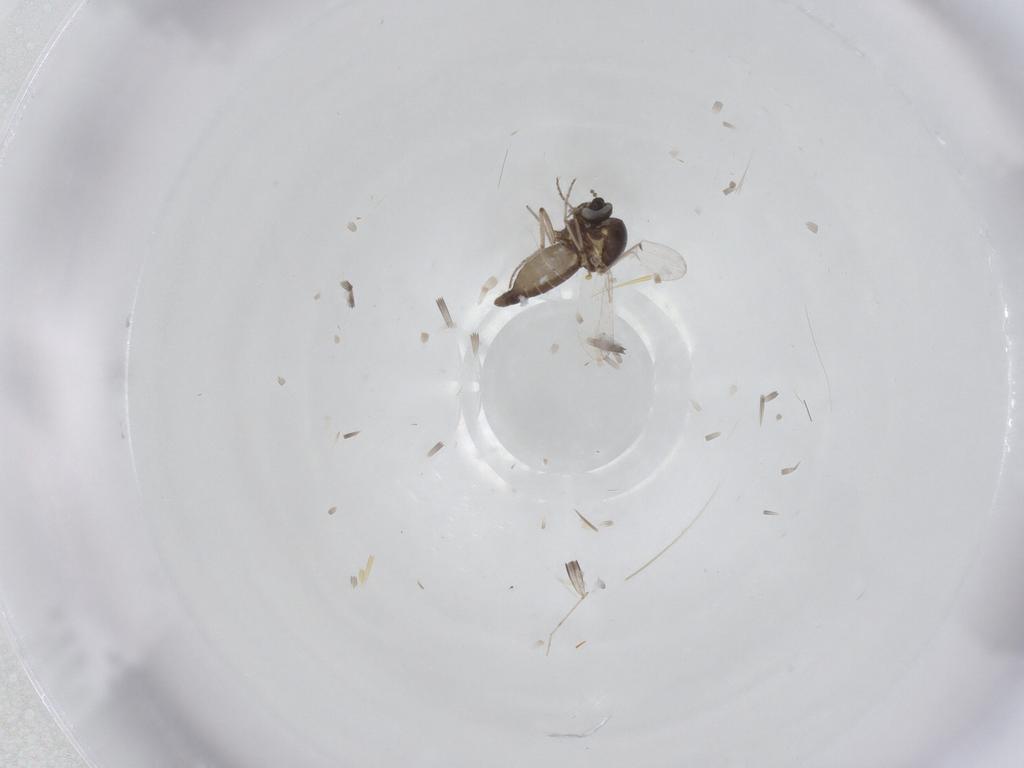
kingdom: Animalia
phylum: Arthropoda
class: Insecta
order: Diptera
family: Ceratopogonidae
